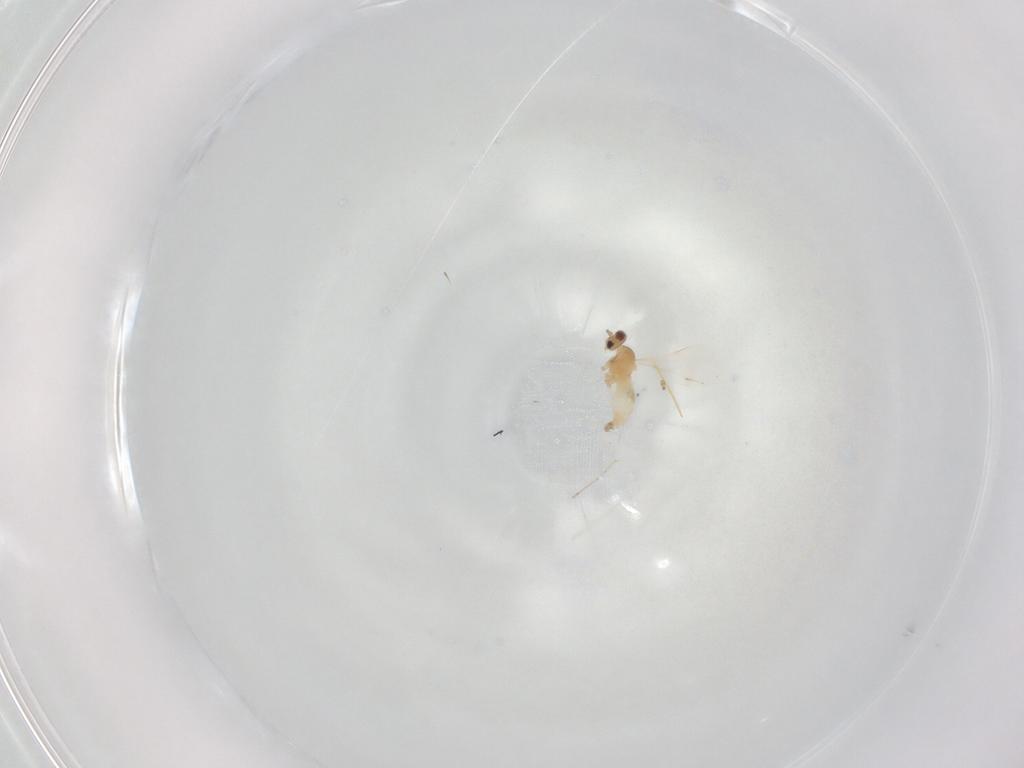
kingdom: Animalia
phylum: Arthropoda
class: Insecta
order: Diptera
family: Cecidomyiidae
